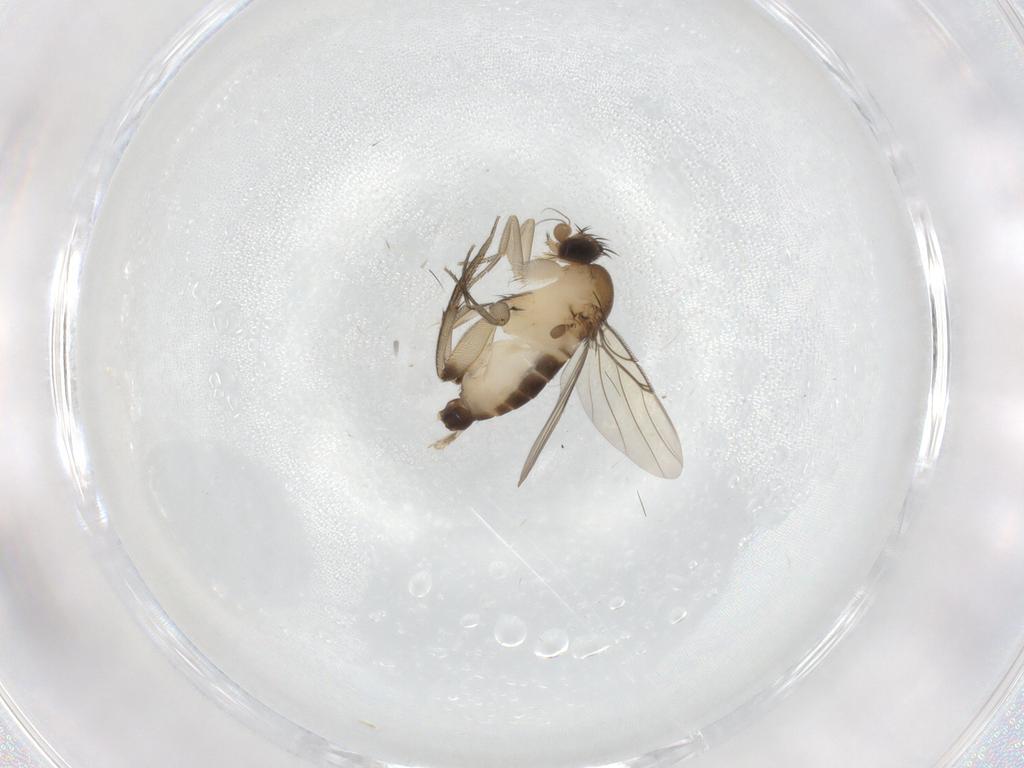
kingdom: Animalia
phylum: Arthropoda
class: Insecta
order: Diptera
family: Phoridae
